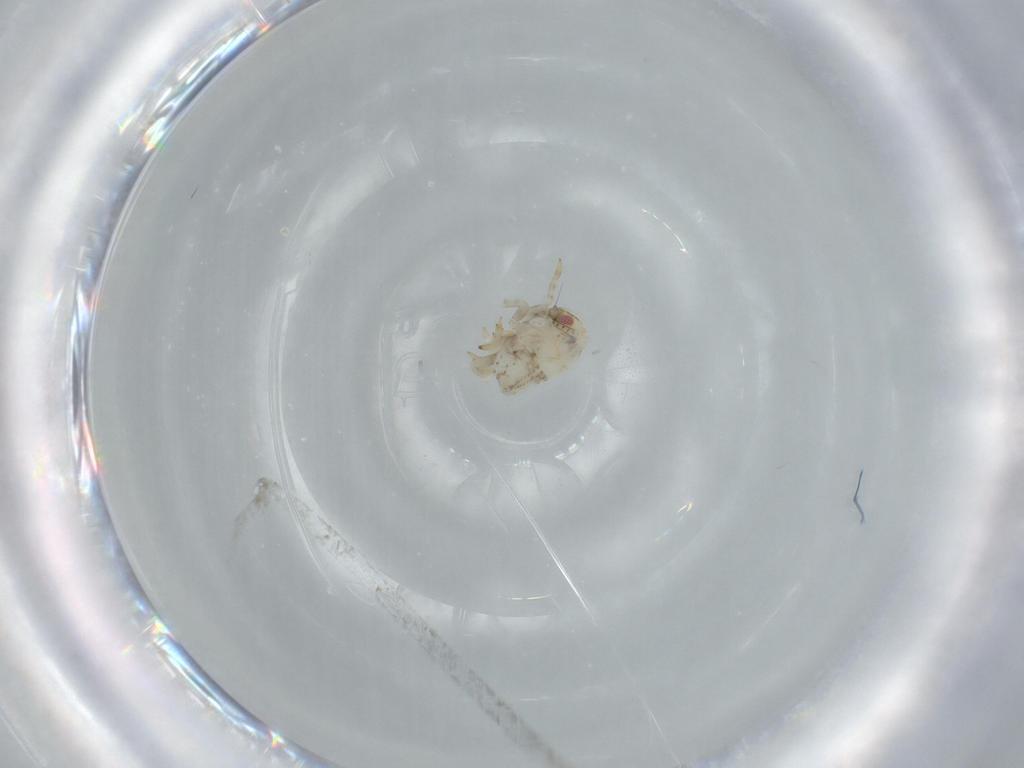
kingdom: Animalia
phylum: Arthropoda
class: Insecta
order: Hemiptera
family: Acanaloniidae
